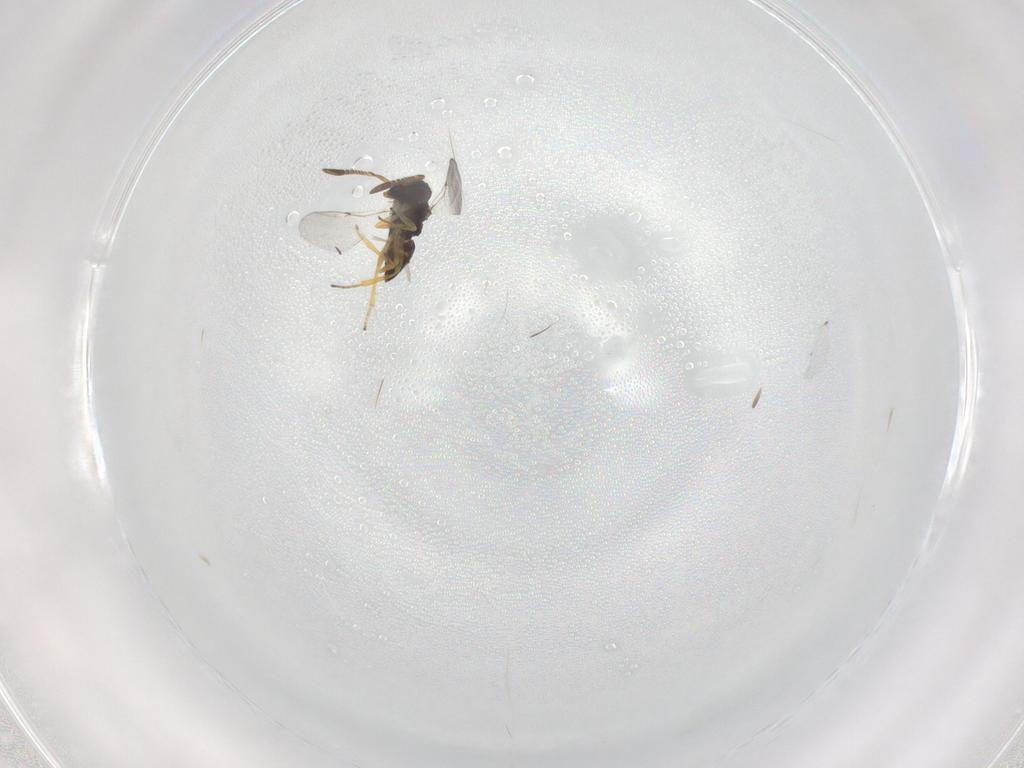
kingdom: Animalia
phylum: Arthropoda
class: Insecta
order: Hymenoptera
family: Encyrtidae
